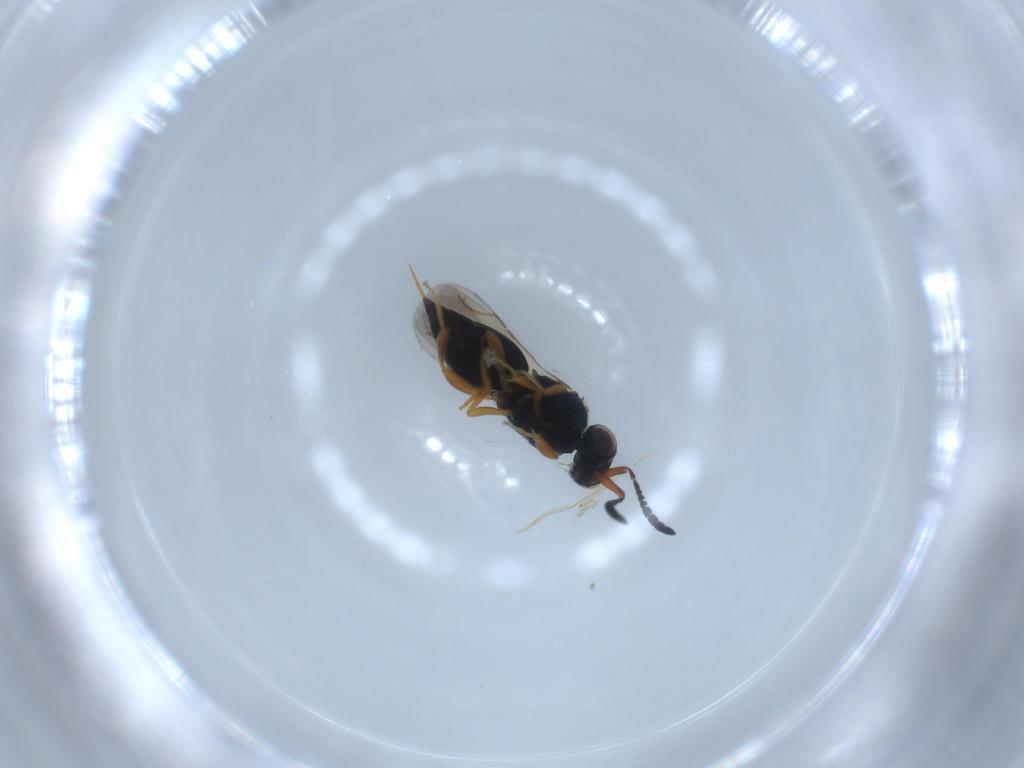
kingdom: Animalia
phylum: Arthropoda
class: Insecta
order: Hymenoptera
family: Ceraphronidae
